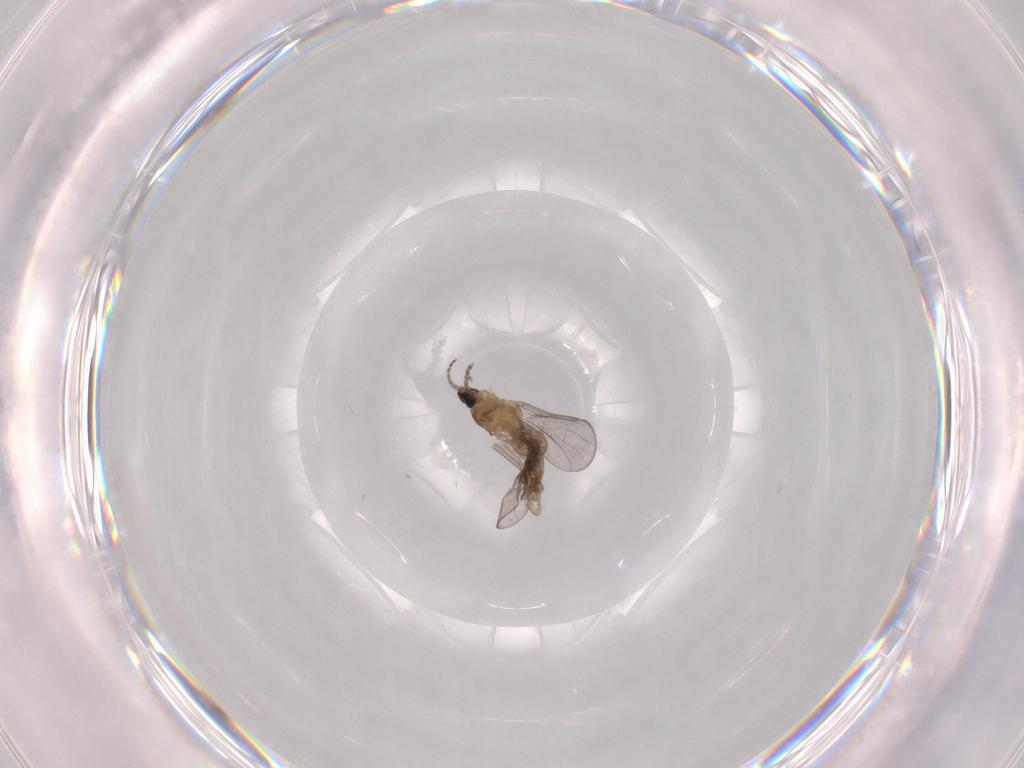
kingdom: Animalia
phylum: Arthropoda
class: Insecta
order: Diptera
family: Cecidomyiidae
